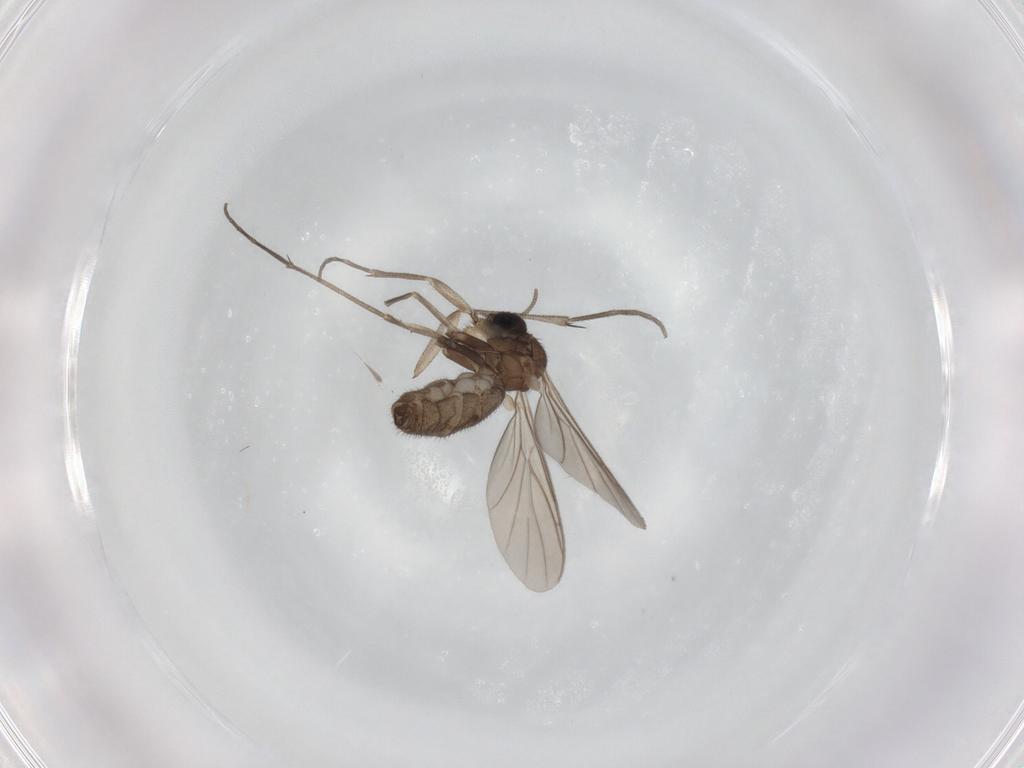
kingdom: Animalia
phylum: Arthropoda
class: Insecta
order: Diptera
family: Keroplatidae
